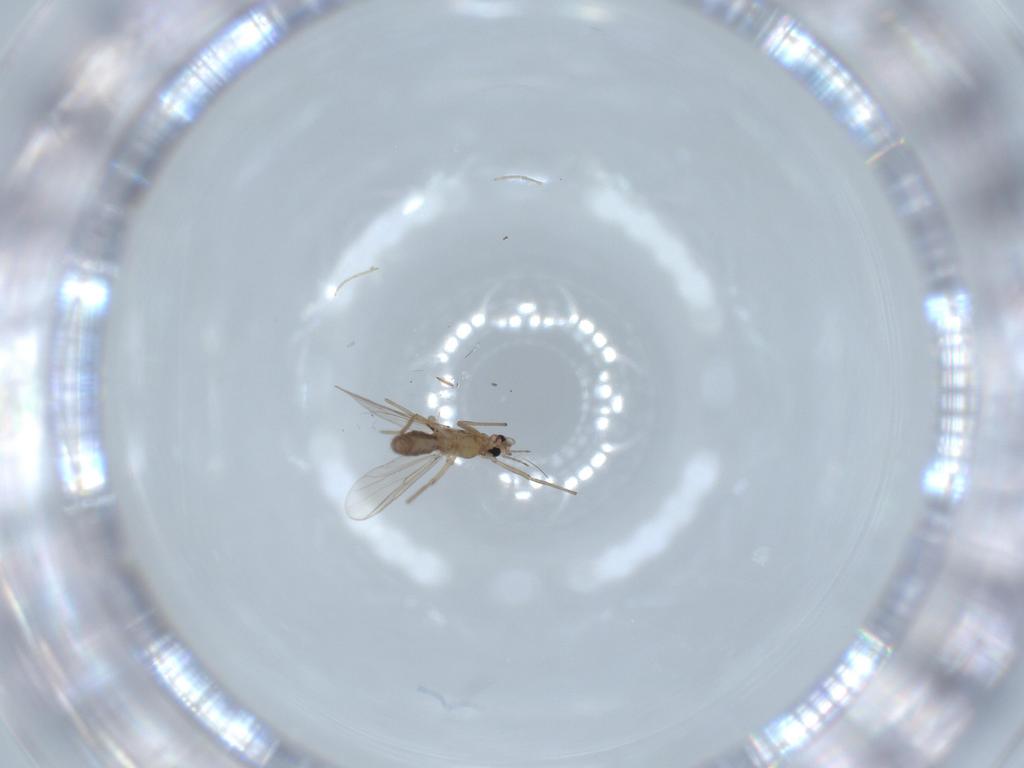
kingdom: Animalia
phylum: Arthropoda
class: Insecta
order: Diptera
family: Chironomidae
